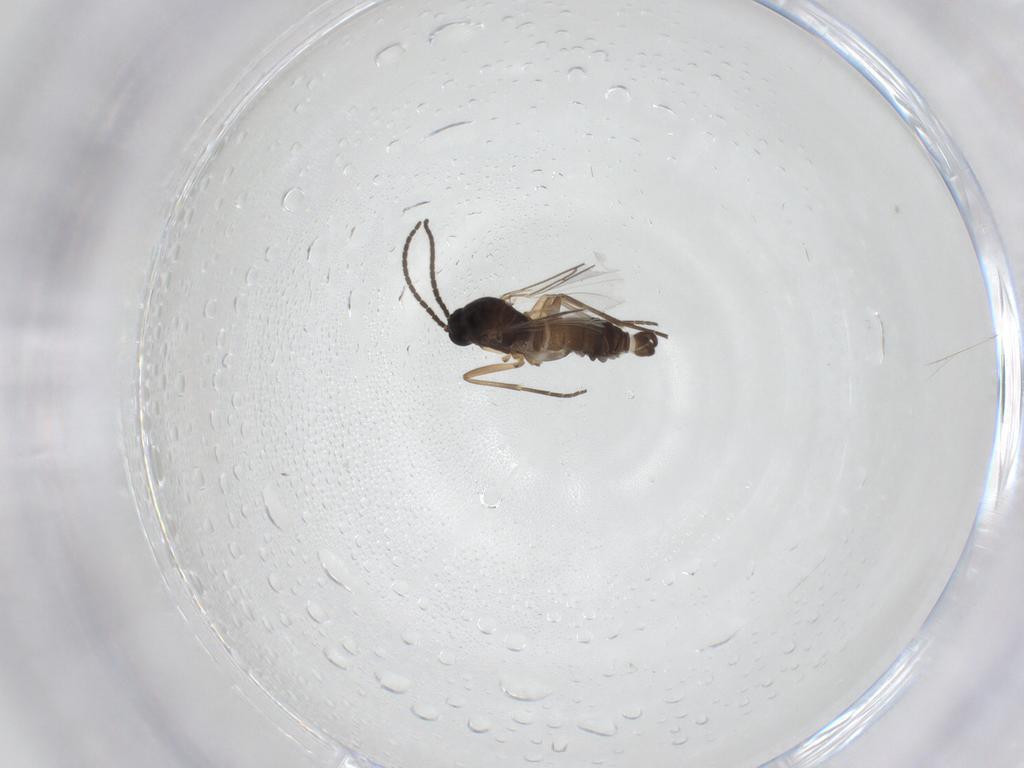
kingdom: Animalia
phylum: Arthropoda
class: Insecta
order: Diptera
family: Sciaridae
